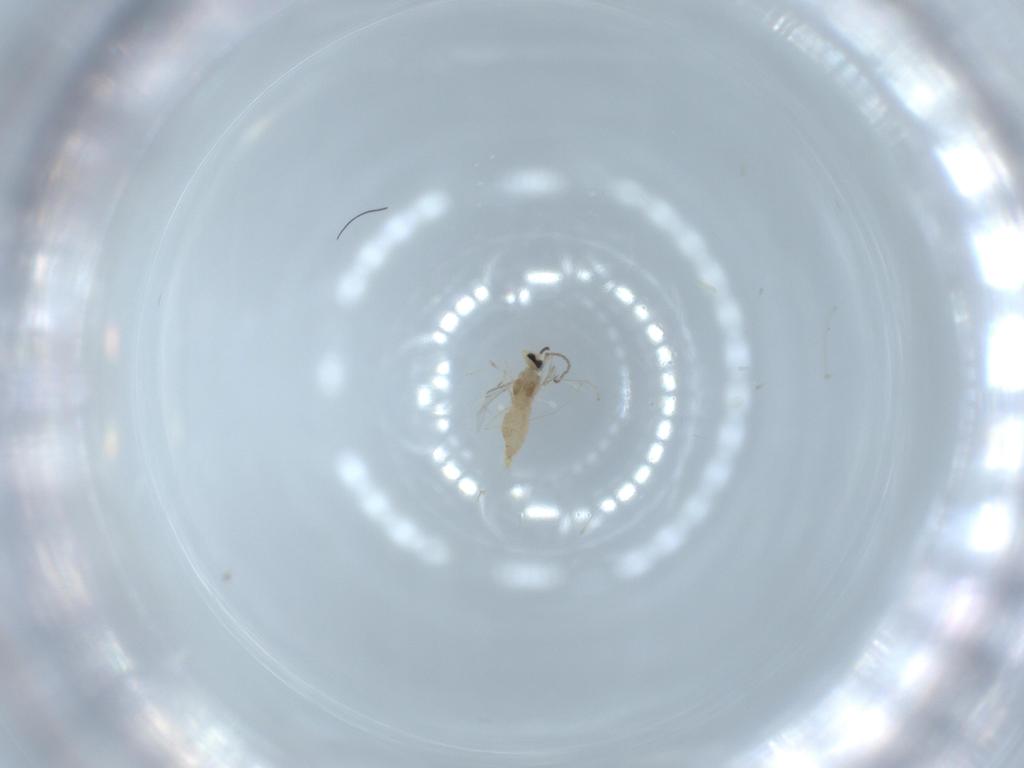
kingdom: Animalia
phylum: Arthropoda
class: Insecta
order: Diptera
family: Cecidomyiidae
